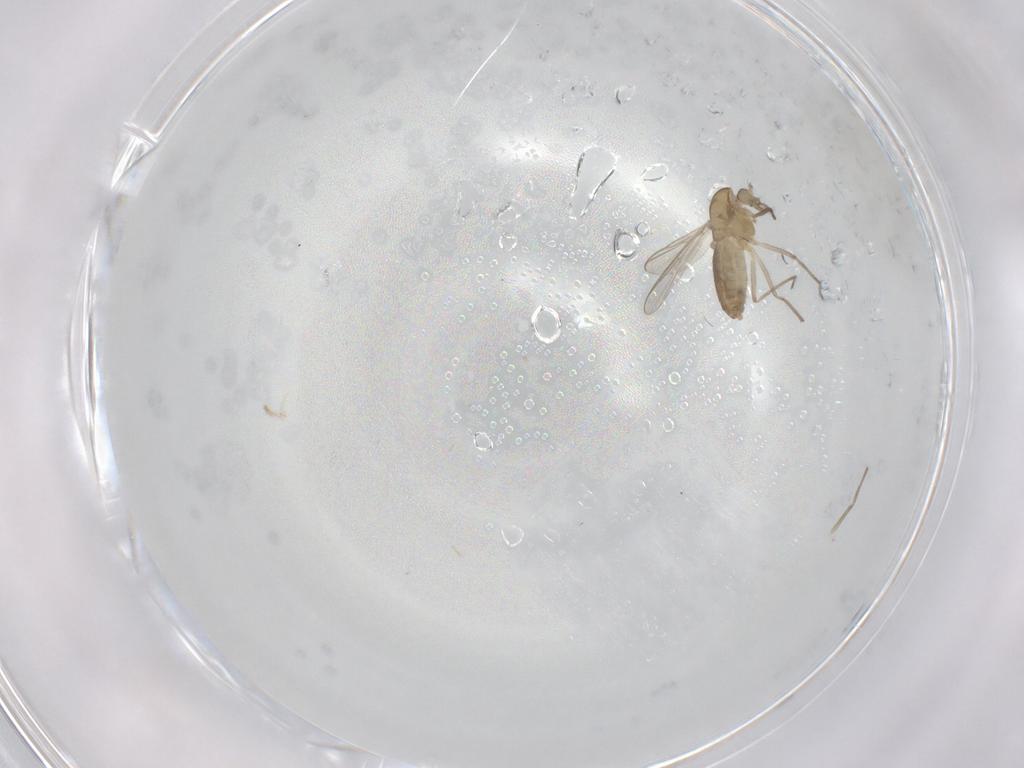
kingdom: Animalia
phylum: Arthropoda
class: Insecta
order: Diptera
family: Chironomidae
